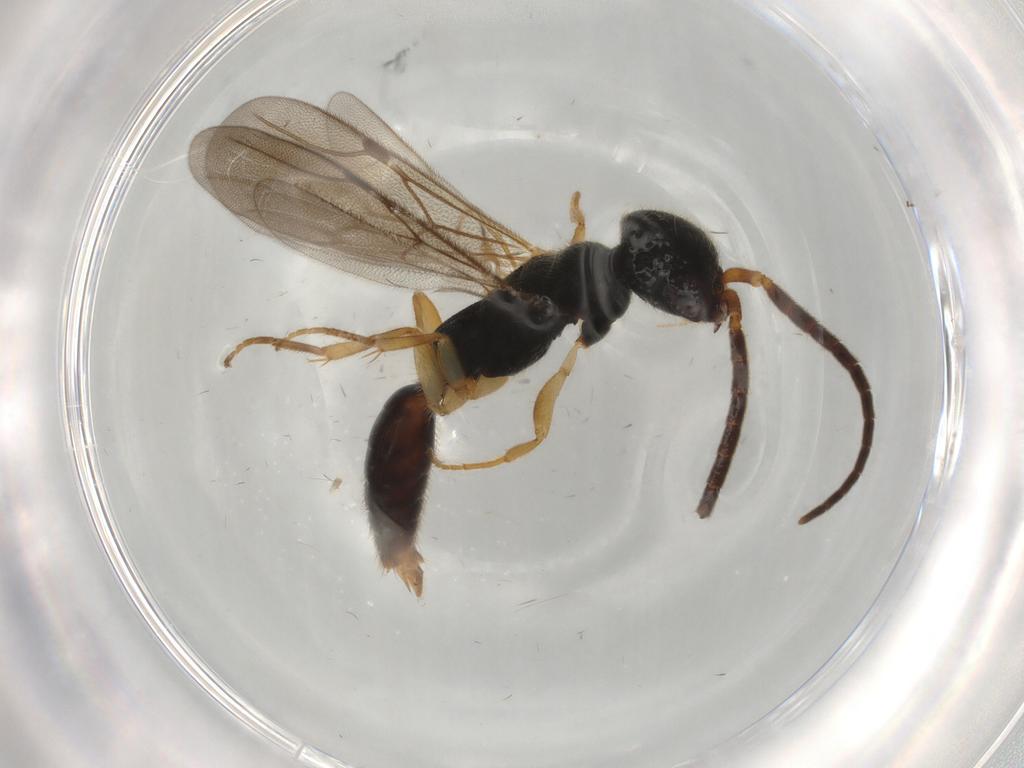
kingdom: Animalia
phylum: Arthropoda
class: Insecta
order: Hymenoptera
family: Bethylidae
